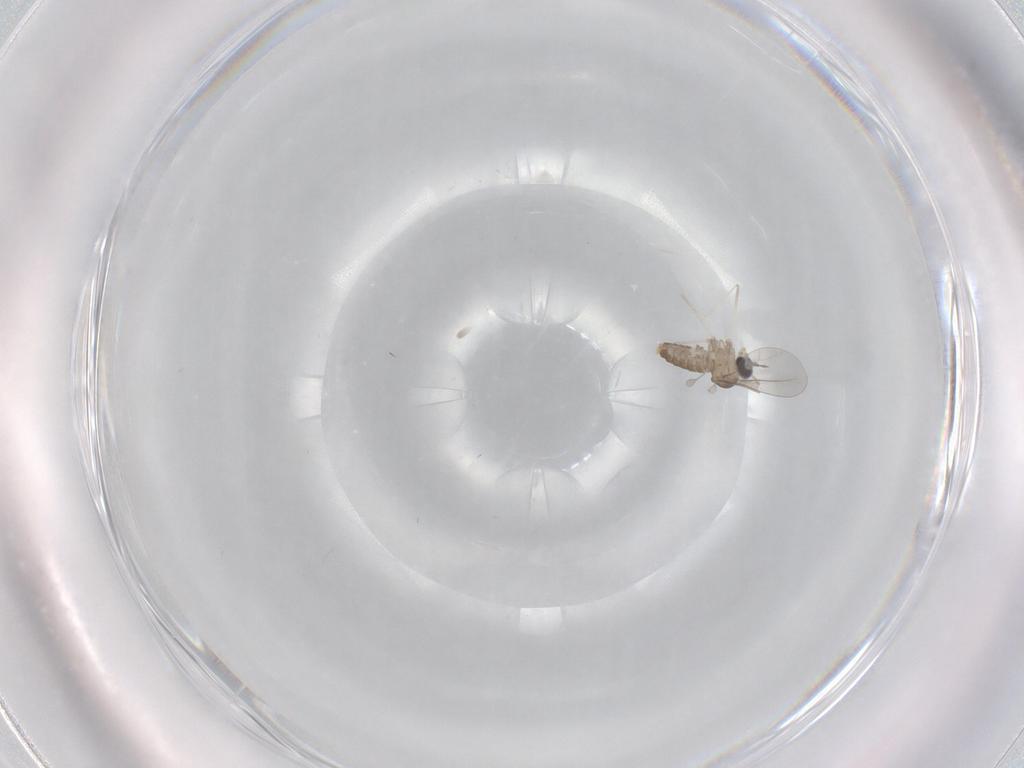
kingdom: Animalia
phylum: Arthropoda
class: Insecta
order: Diptera
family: Cecidomyiidae
